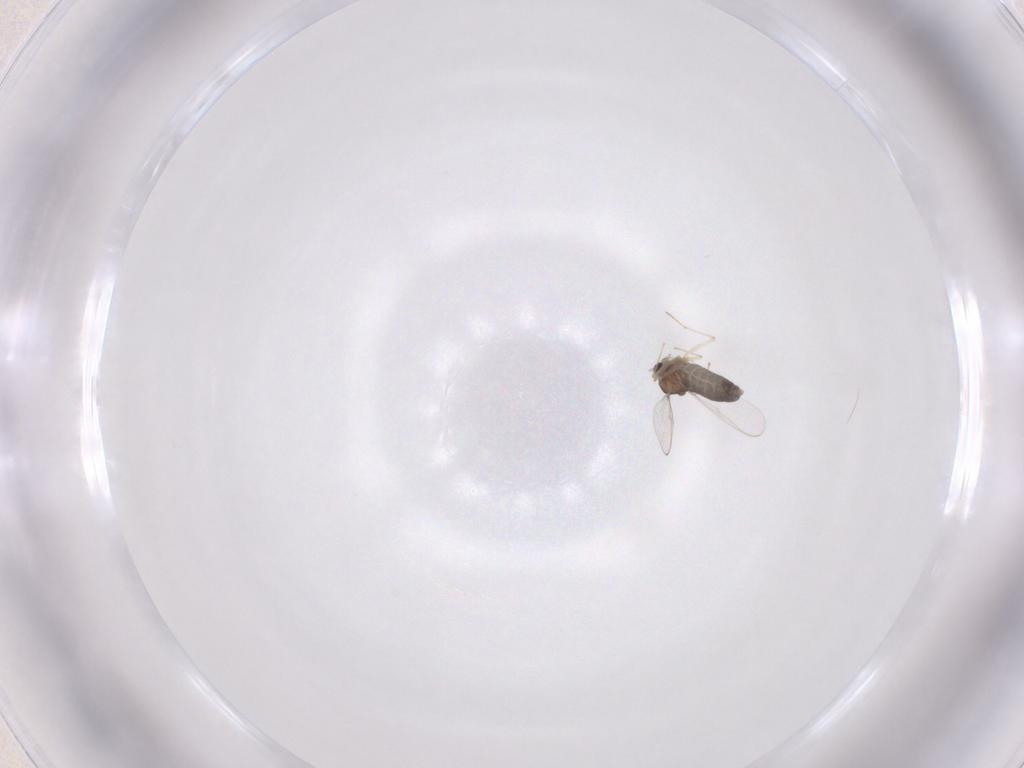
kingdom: Animalia
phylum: Arthropoda
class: Insecta
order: Diptera
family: Chironomidae
